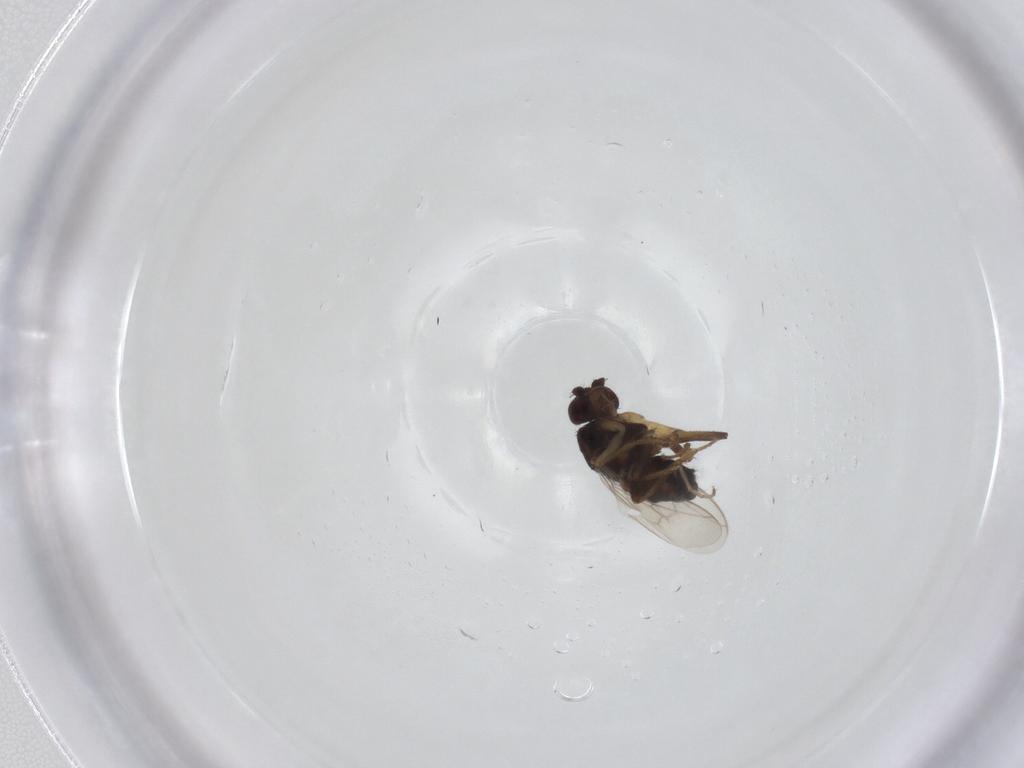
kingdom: Animalia
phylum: Arthropoda
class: Insecta
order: Diptera
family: Sphaeroceridae
